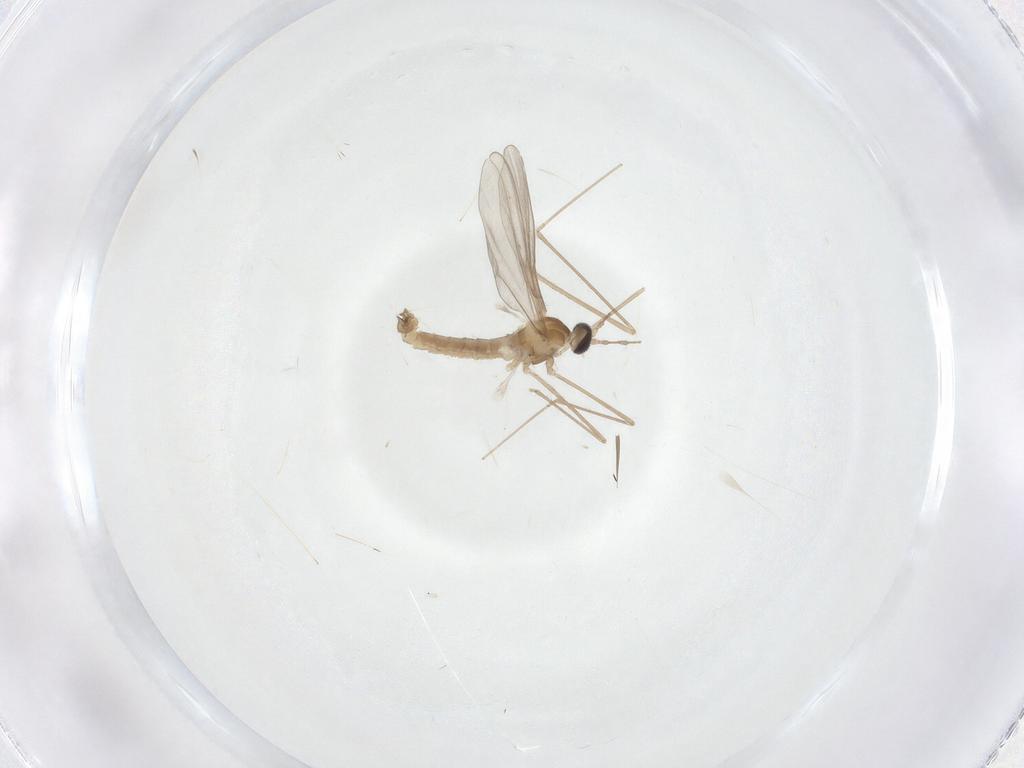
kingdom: Animalia
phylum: Arthropoda
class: Insecta
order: Diptera
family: Cecidomyiidae
